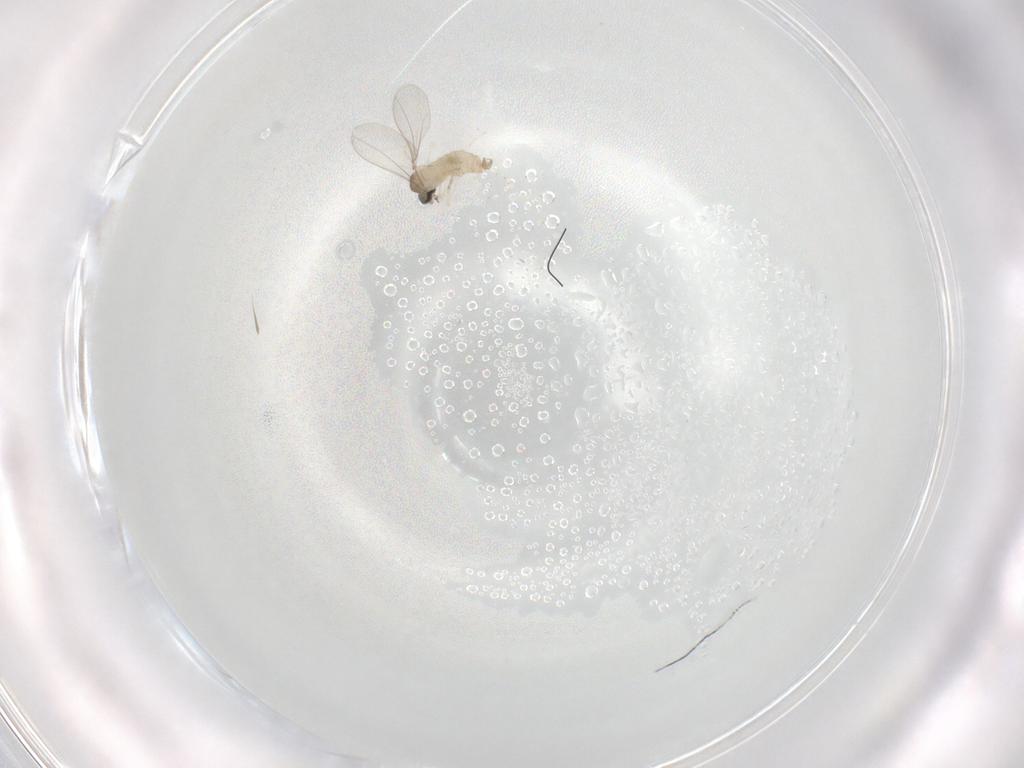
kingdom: Animalia
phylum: Arthropoda
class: Insecta
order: Diptera
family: Cecidomyiidae
